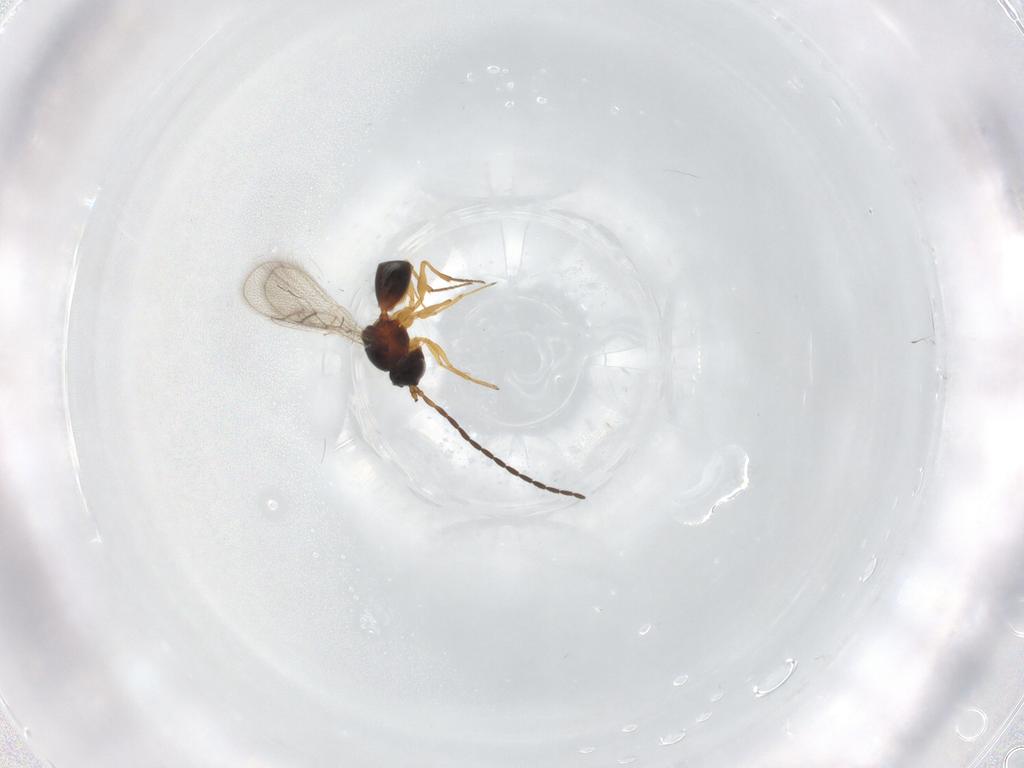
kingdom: Animalia
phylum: Arthropoda
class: Insecta
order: Hymenoptera
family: Figitidae
